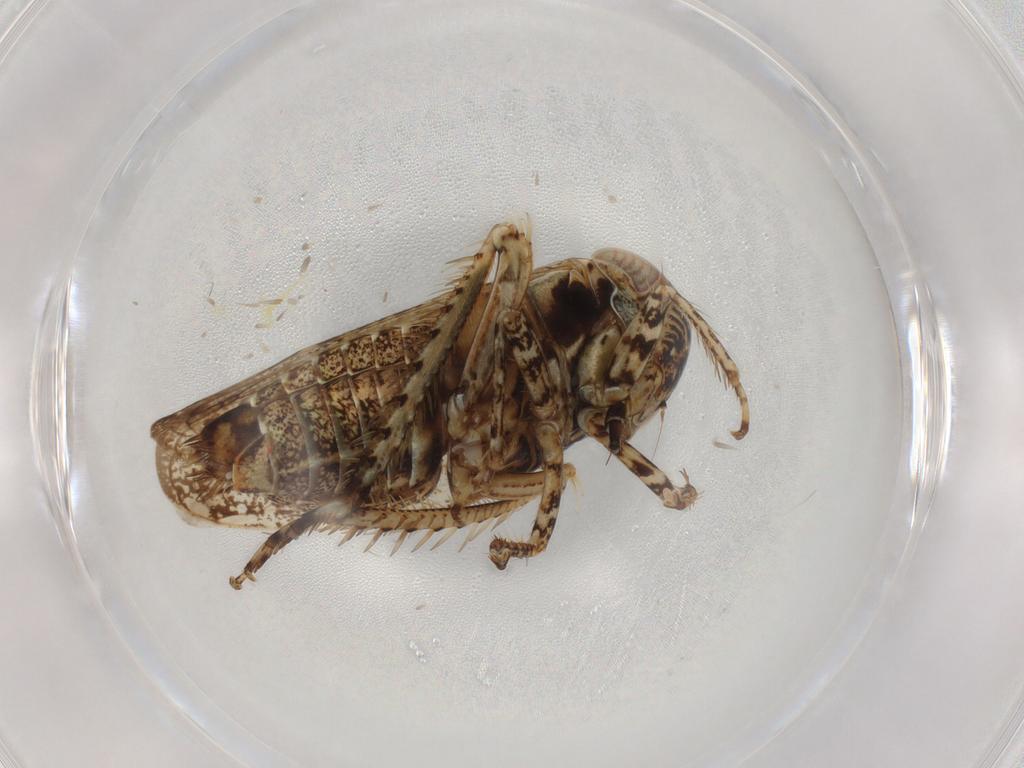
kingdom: Animalia
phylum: Arthropoda
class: Insecta
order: Hemiptera
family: Aphididae
